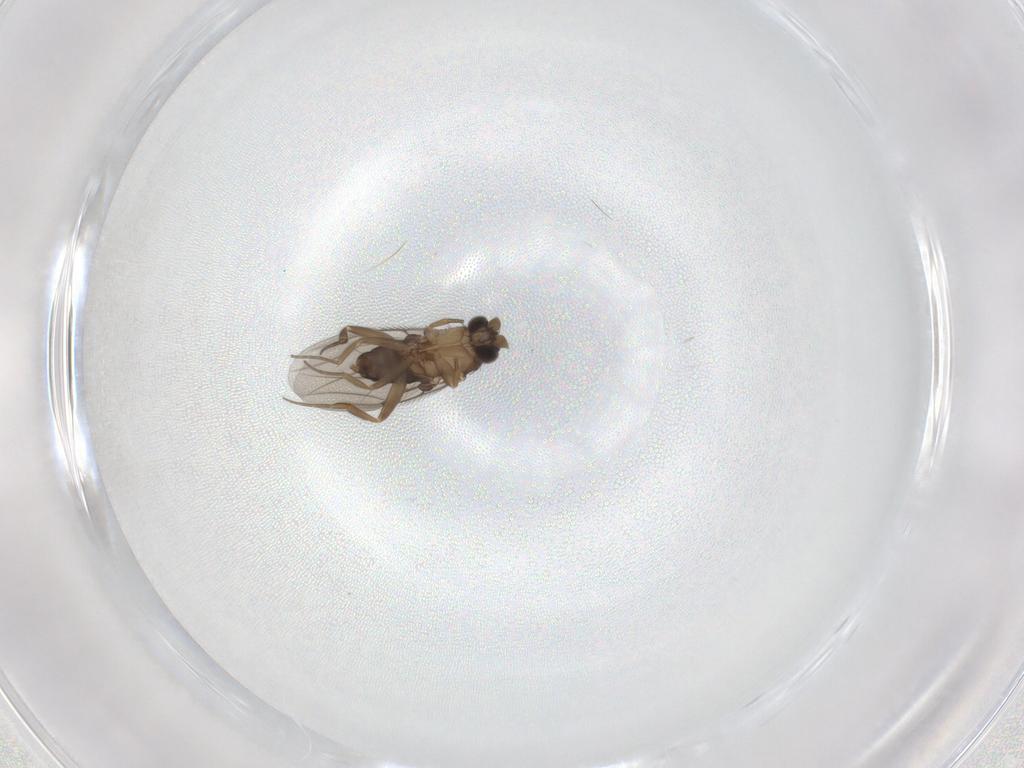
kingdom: Animalia
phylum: Arthropoda
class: Insecta
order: Diptera
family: Phoridae
